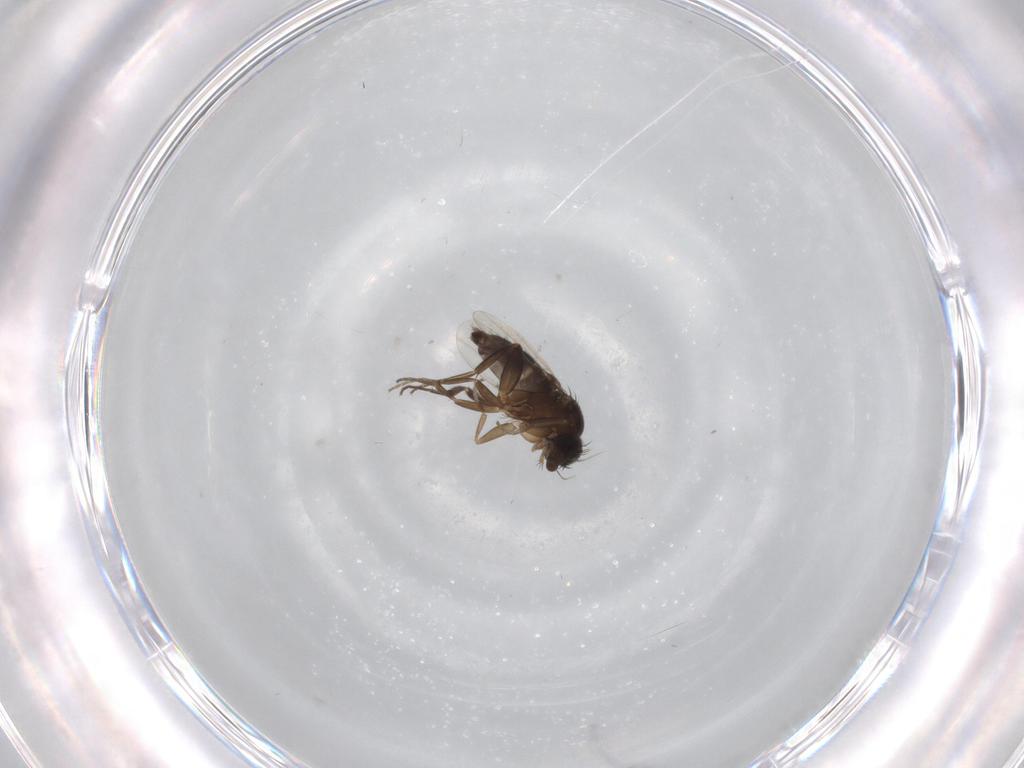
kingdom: Animalia
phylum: Arthropoda
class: Insecta
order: Diptera
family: Phoridae
